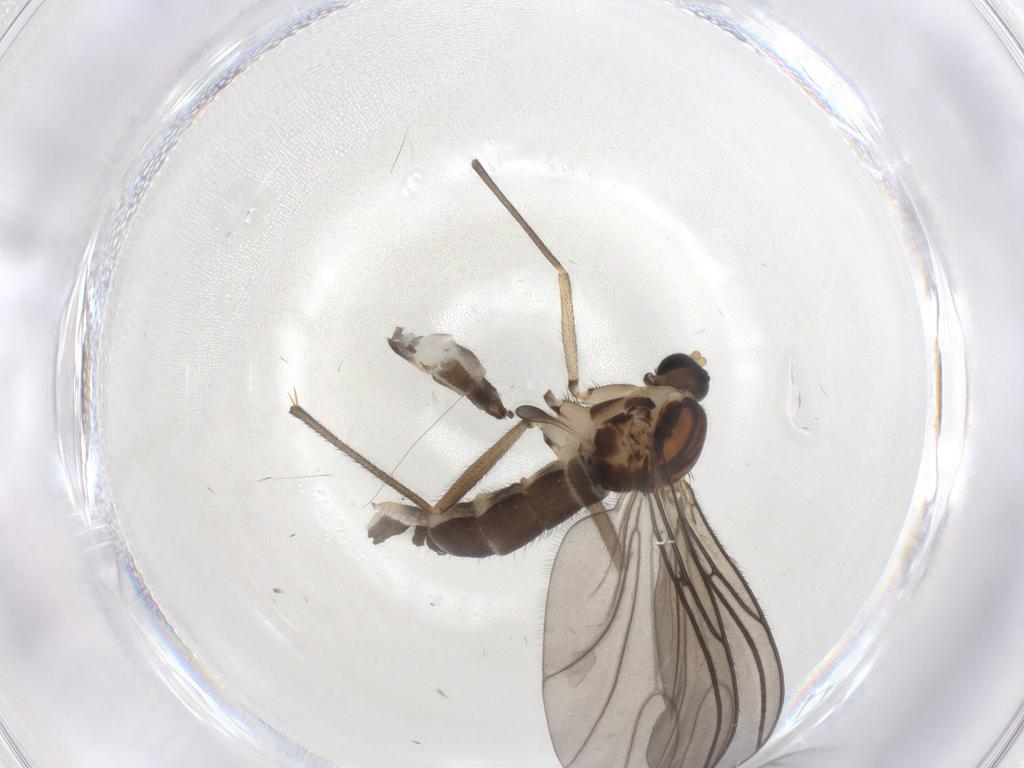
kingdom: Animalia
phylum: Arthropoda
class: Insecta
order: Diptera
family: Sciaridae
